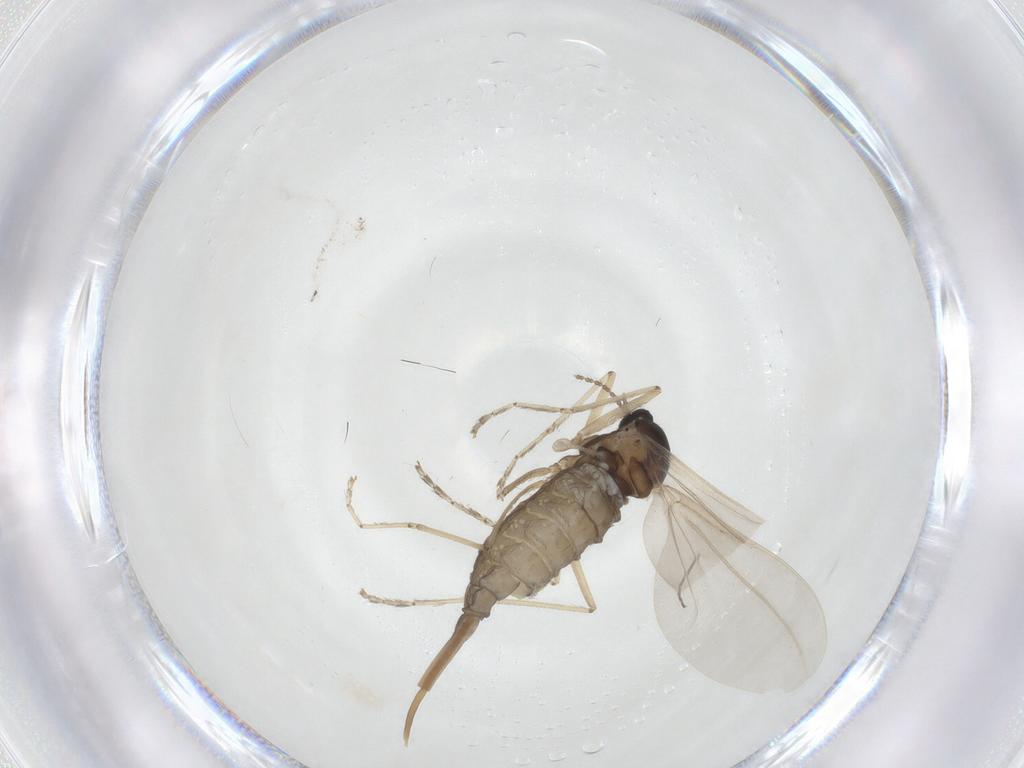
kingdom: Animalia
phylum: Arthropoda
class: Insecta
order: Diptera
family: Cecidomyiidae
